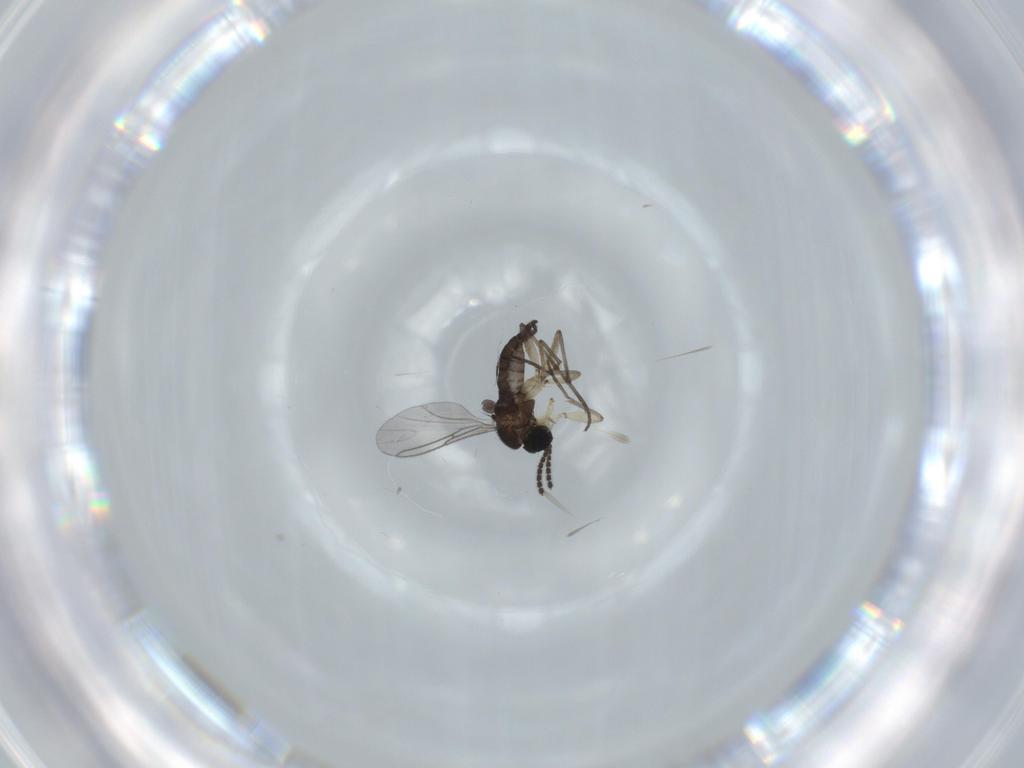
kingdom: Animalia
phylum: Arthropoda
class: Insecta
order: Diptera
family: Sciaridae
